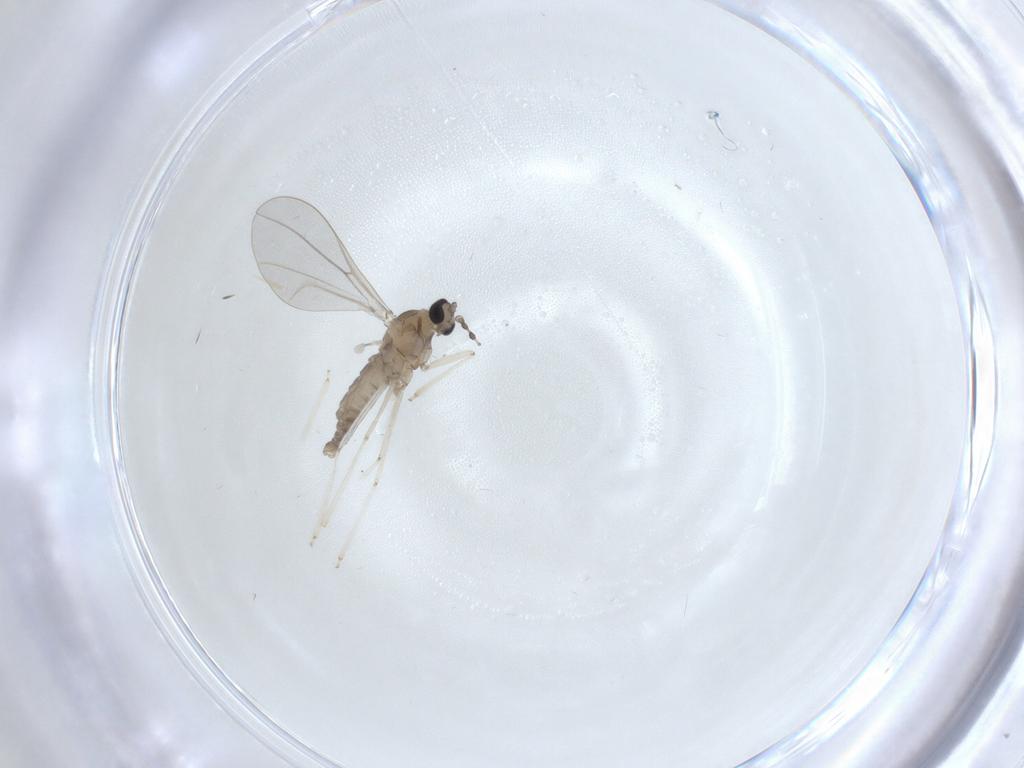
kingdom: Animalia
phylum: Arthropoda
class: Insecta
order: Diptera
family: Cecidomyiidae
